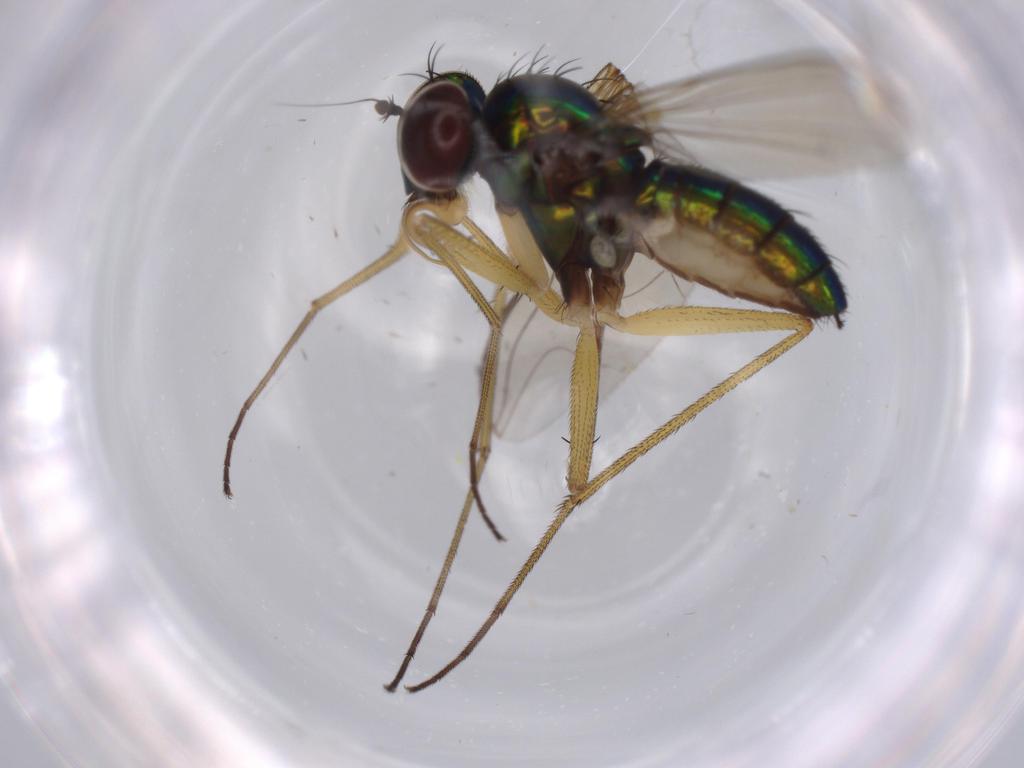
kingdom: Animalia
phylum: Arthropoda
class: Insecta
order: Diptera
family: Dolichopodidae
